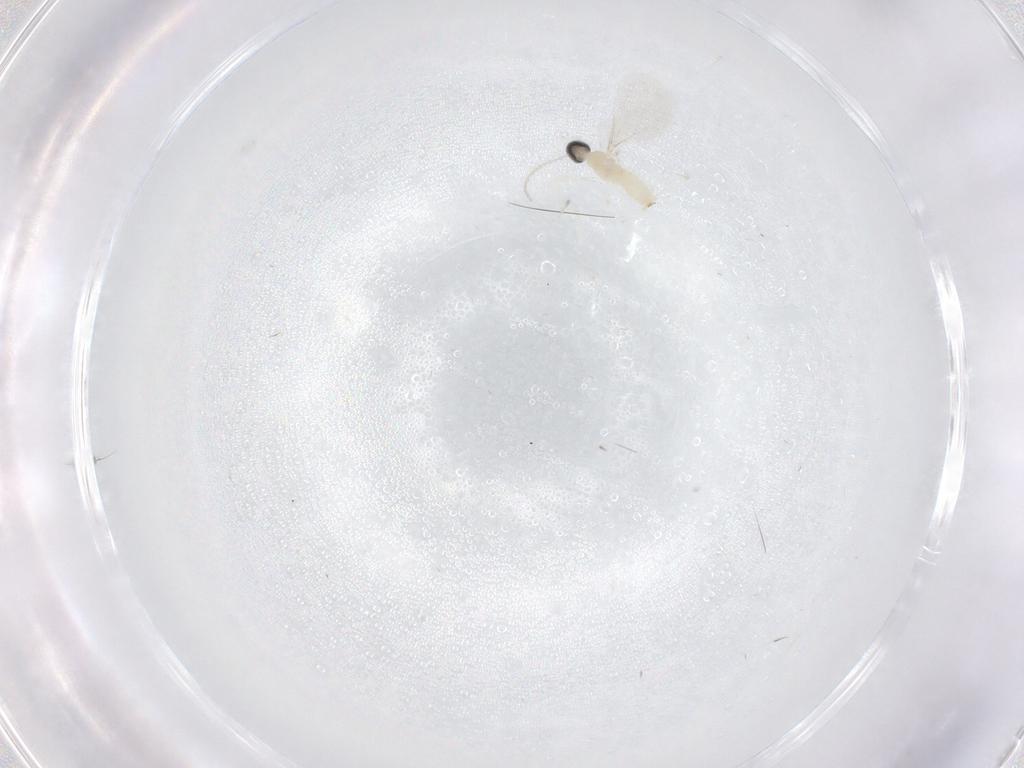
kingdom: Animalia
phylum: Arthropoda
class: Insecta
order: Diptera
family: Cecidomyiidae
